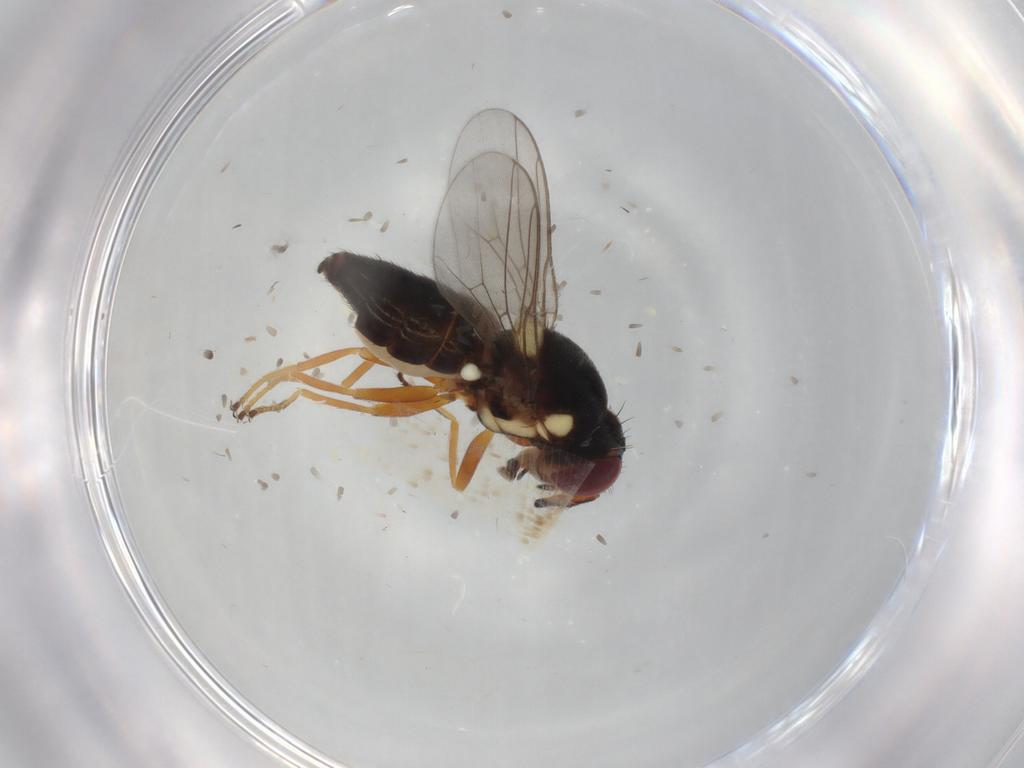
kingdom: Animalia
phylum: Arthropoda
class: Insecta
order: Diptera
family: Chloropidae
